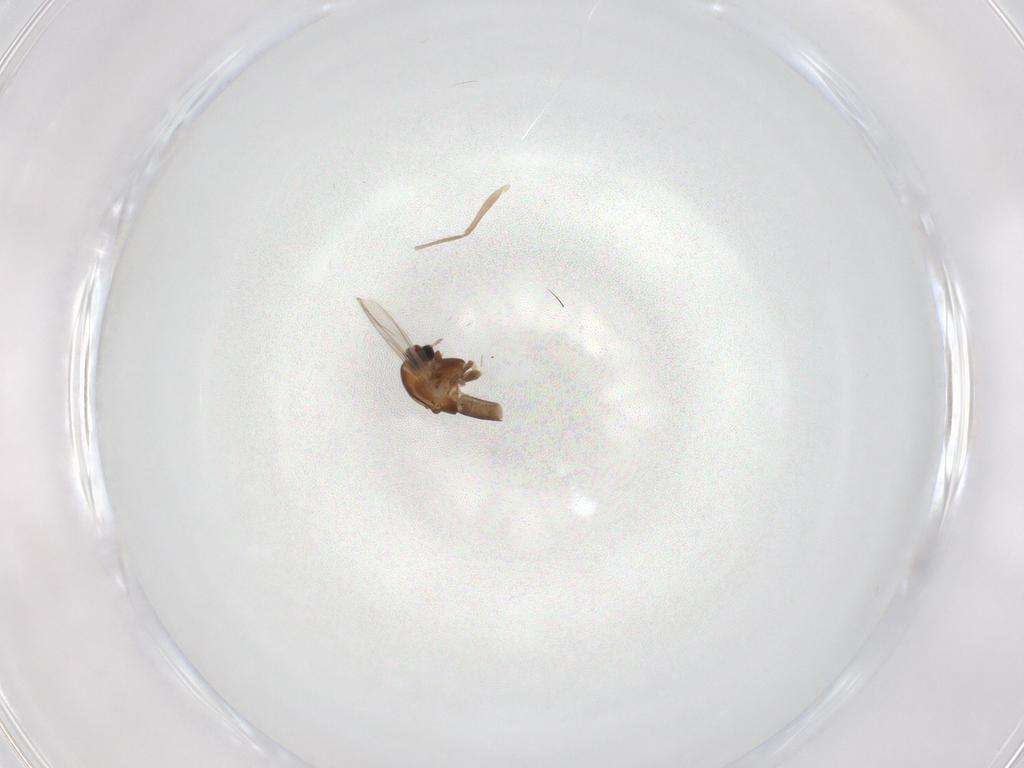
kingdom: Animalia
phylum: Arthropoda
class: Insecta
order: Diptera
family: Chironomidae
